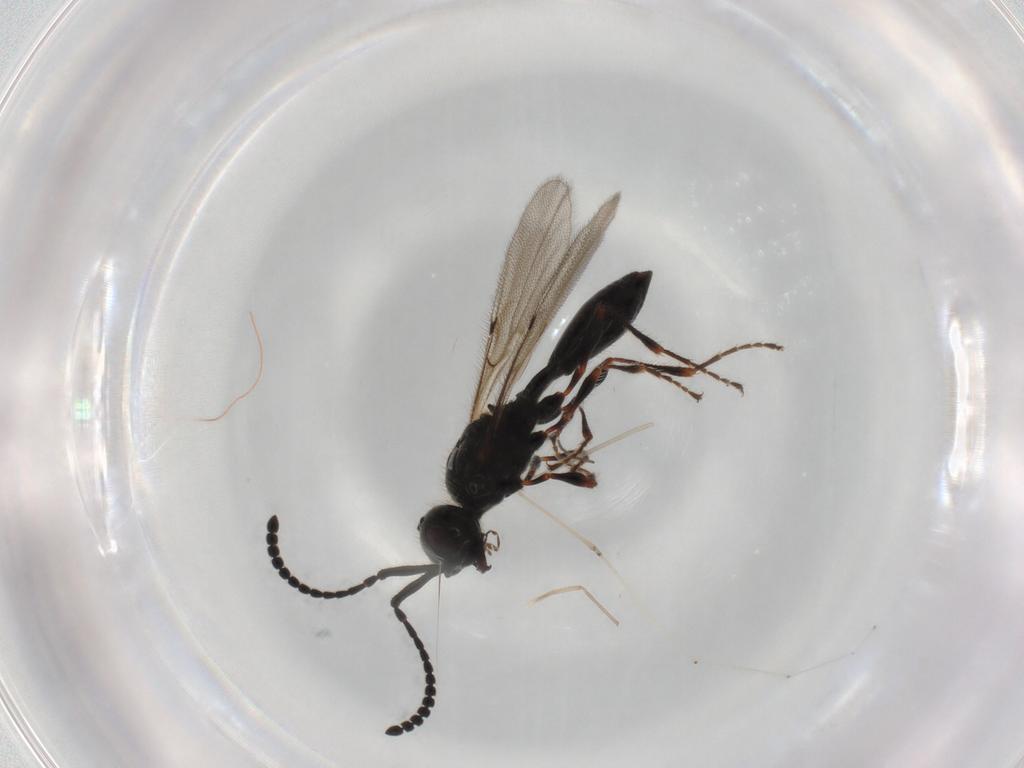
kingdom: Animalia
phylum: Arthropoda
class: Insecta
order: Hymenoptera
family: Diapriidae
